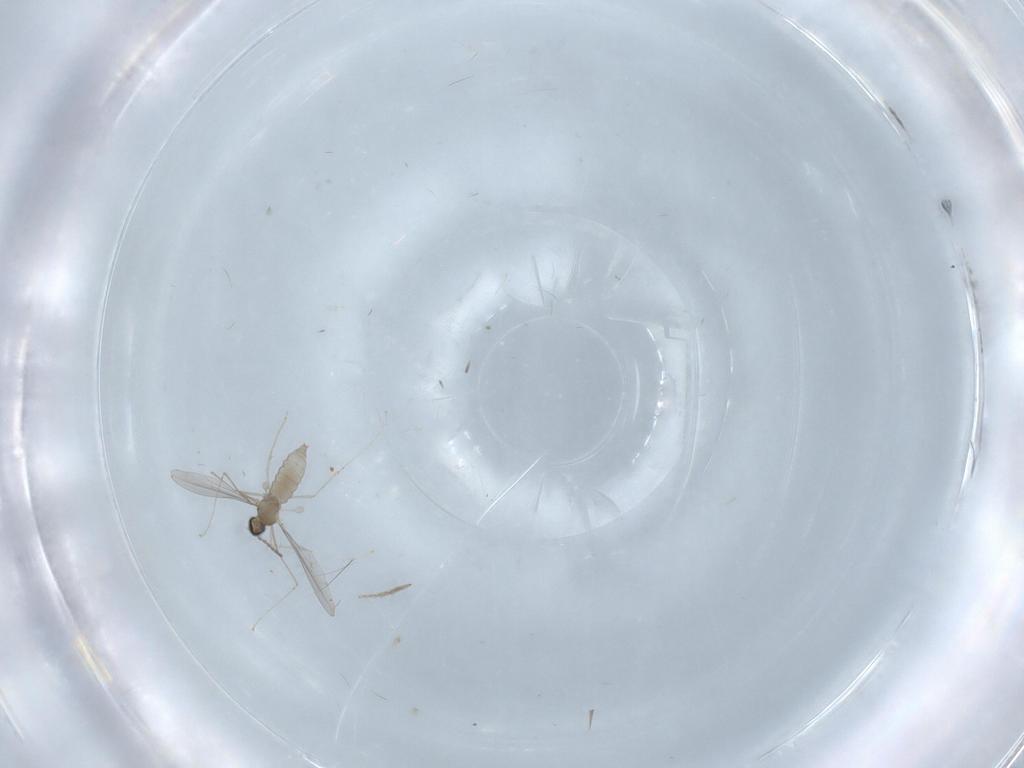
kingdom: Animalia
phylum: Arthropoda
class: Insecta
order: Diptera
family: Cecidomyiidae
